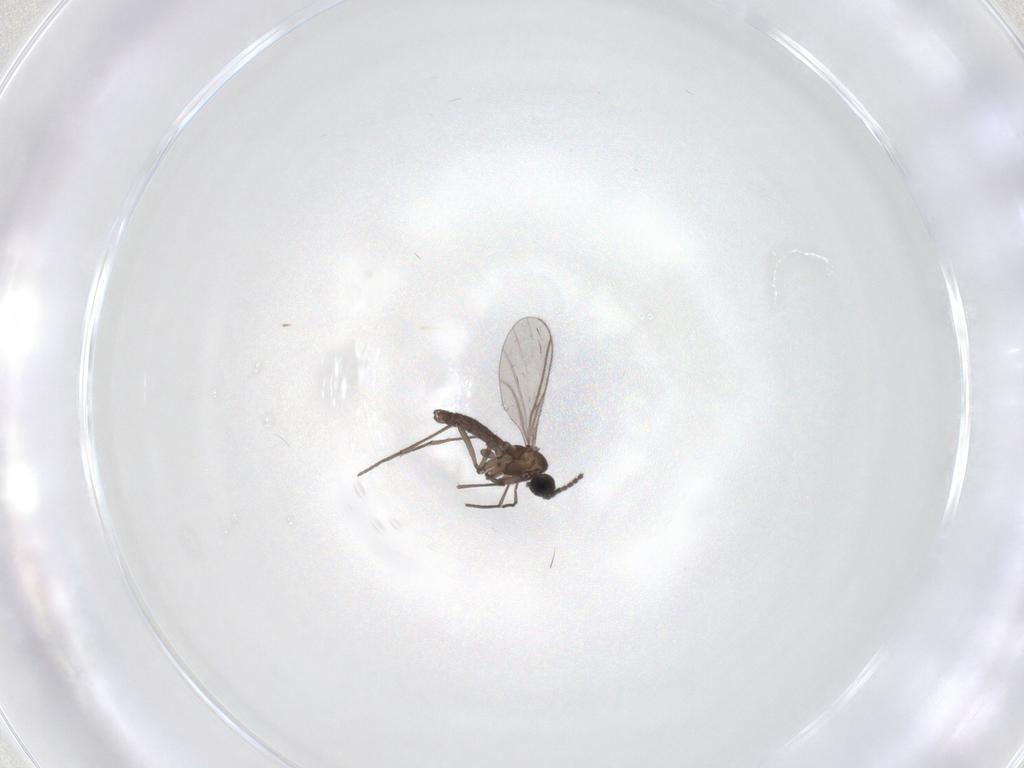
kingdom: Animalia
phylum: Arthropoda
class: Insecta
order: Diptera
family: Cecidomyiidae
